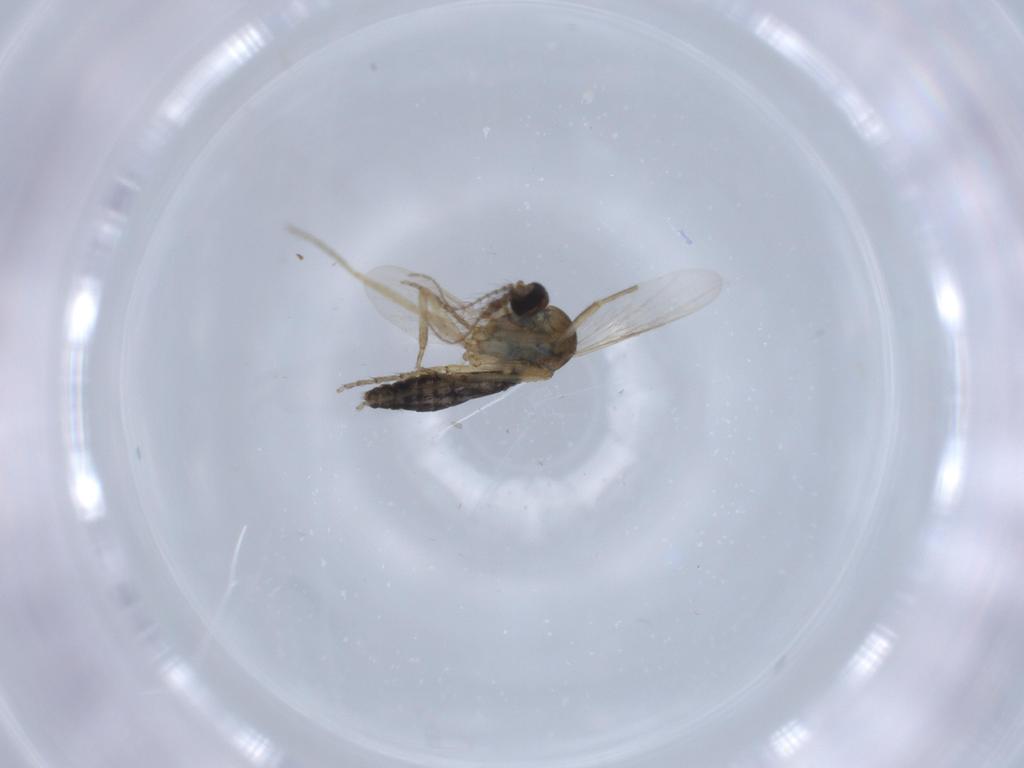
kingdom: Animalia
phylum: Arthropoda
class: Insecta
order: Diptera
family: Ceratopogonidae
